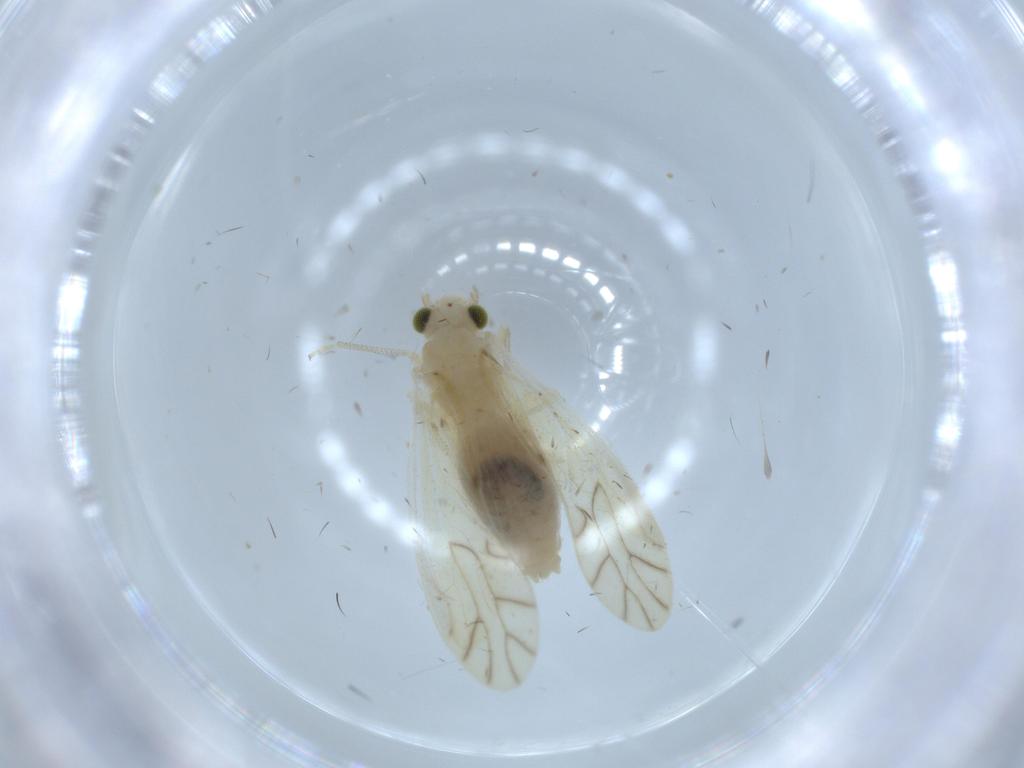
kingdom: Animalia
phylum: Arthropoda
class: Insecta
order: Psocodea
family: Caeciliusidae
